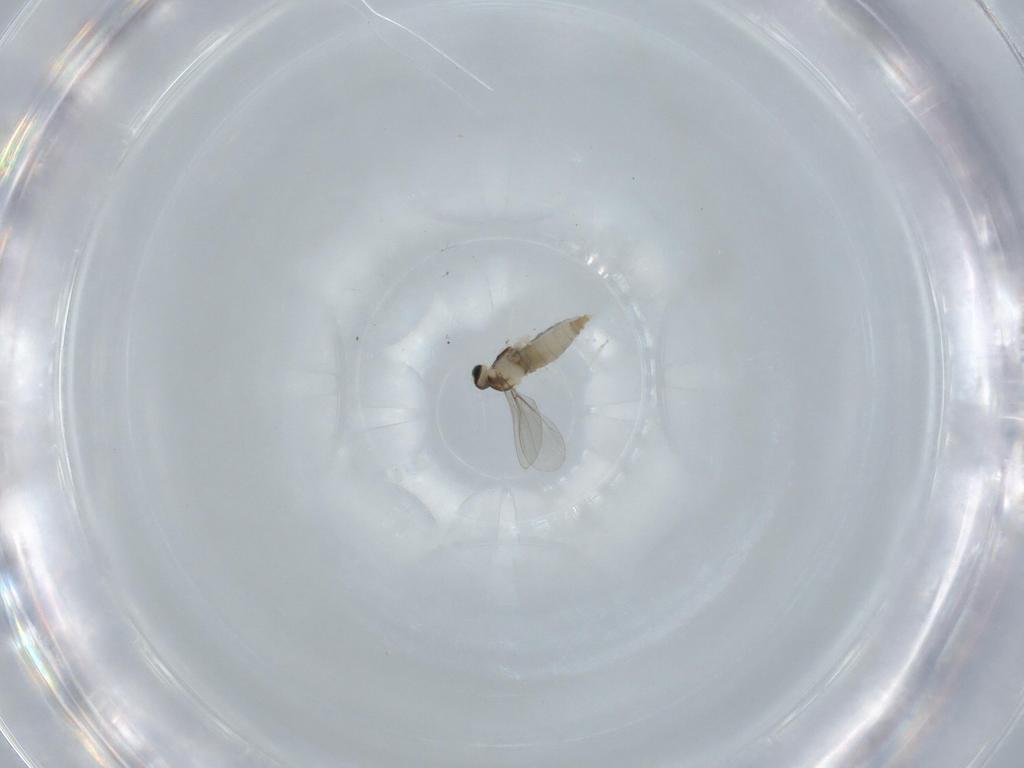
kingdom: Animalia
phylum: Arthropoda
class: Insecta
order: Diptera
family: Cecidomyiidae
